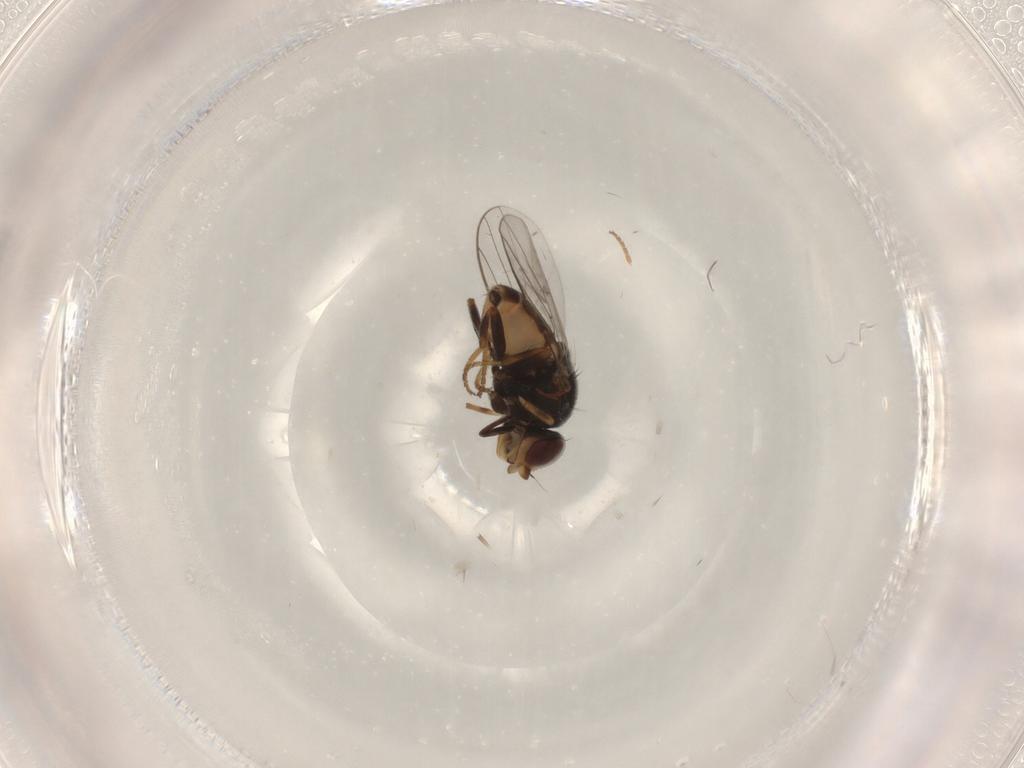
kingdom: Animalia
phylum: Arthropoda
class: Insecta
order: Diptera
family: Chloropidae
